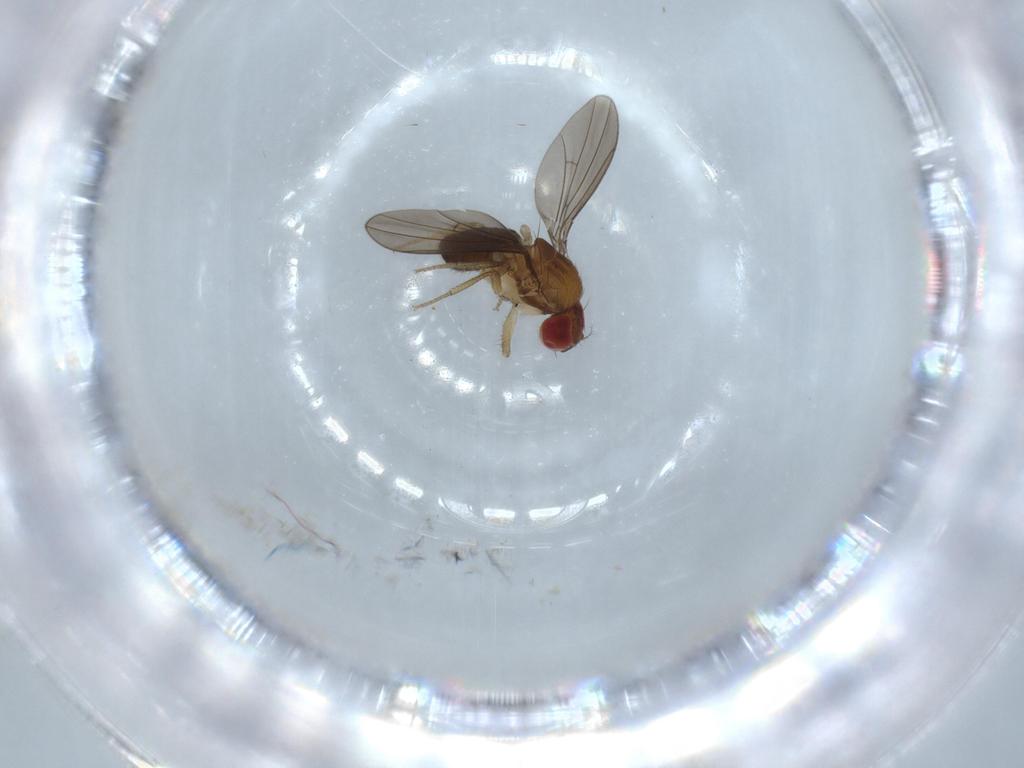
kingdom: Animalia
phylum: Arthropoda
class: Insecta
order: Diptera
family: Drosophilidae
